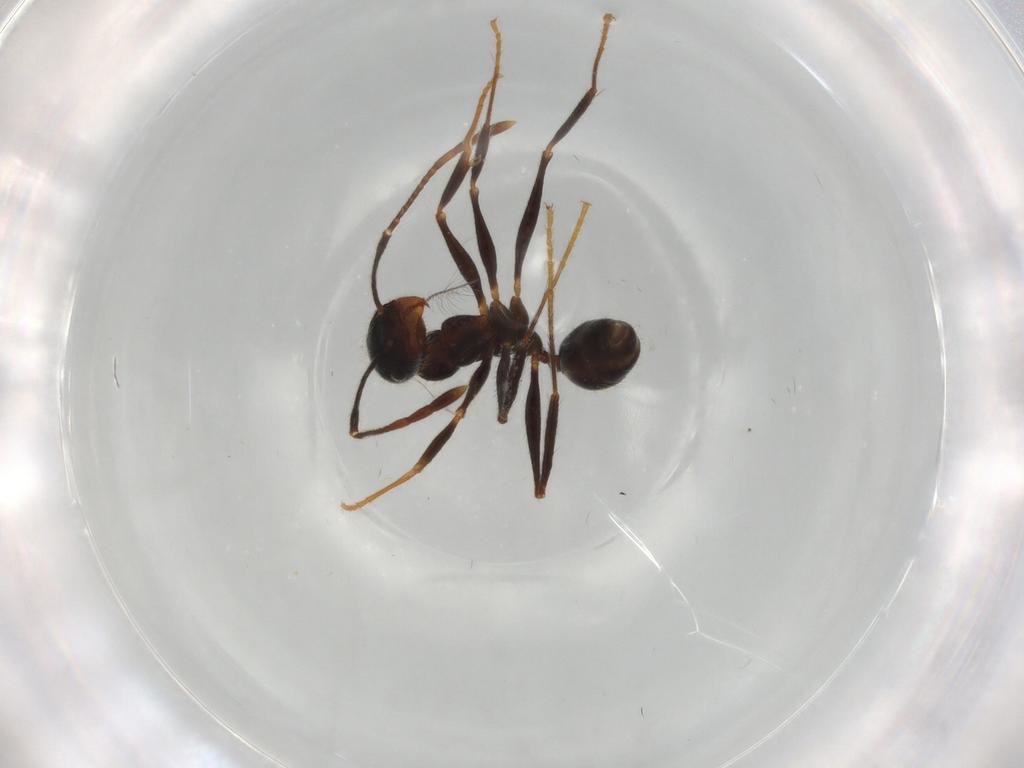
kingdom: Animalia
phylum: Arthropoda
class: Insecta
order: Hymenoptera
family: Formicidae
